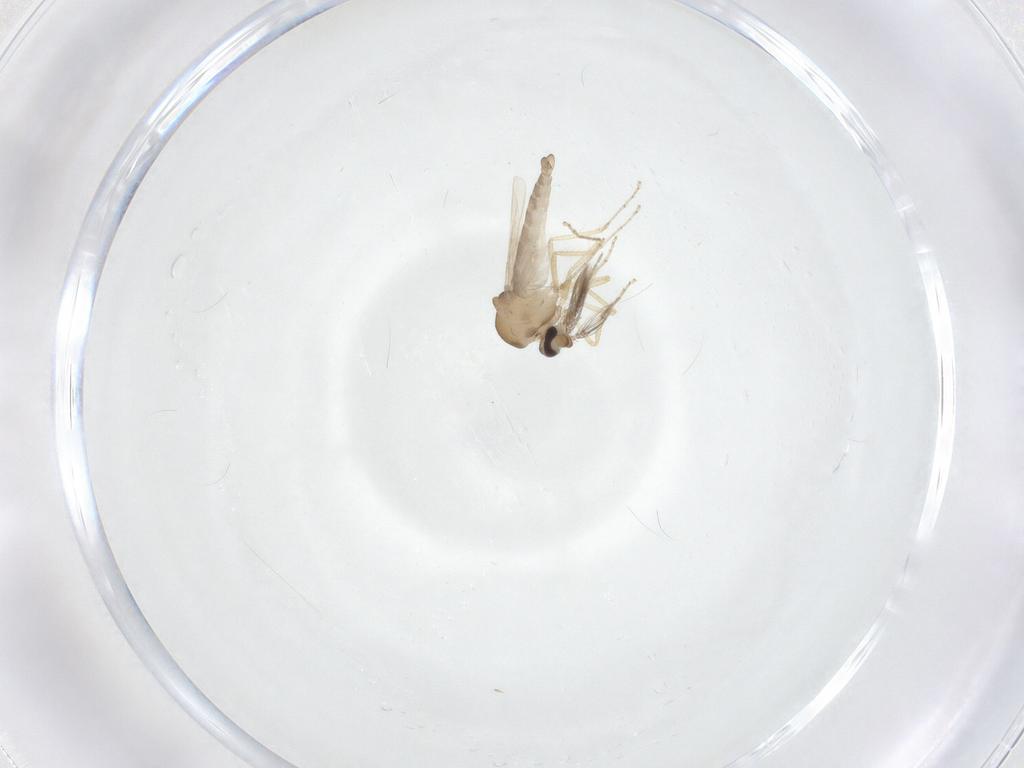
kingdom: Animalia
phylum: Arthropoda
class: Insecta
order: Diptera
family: Ceratopogonidae
